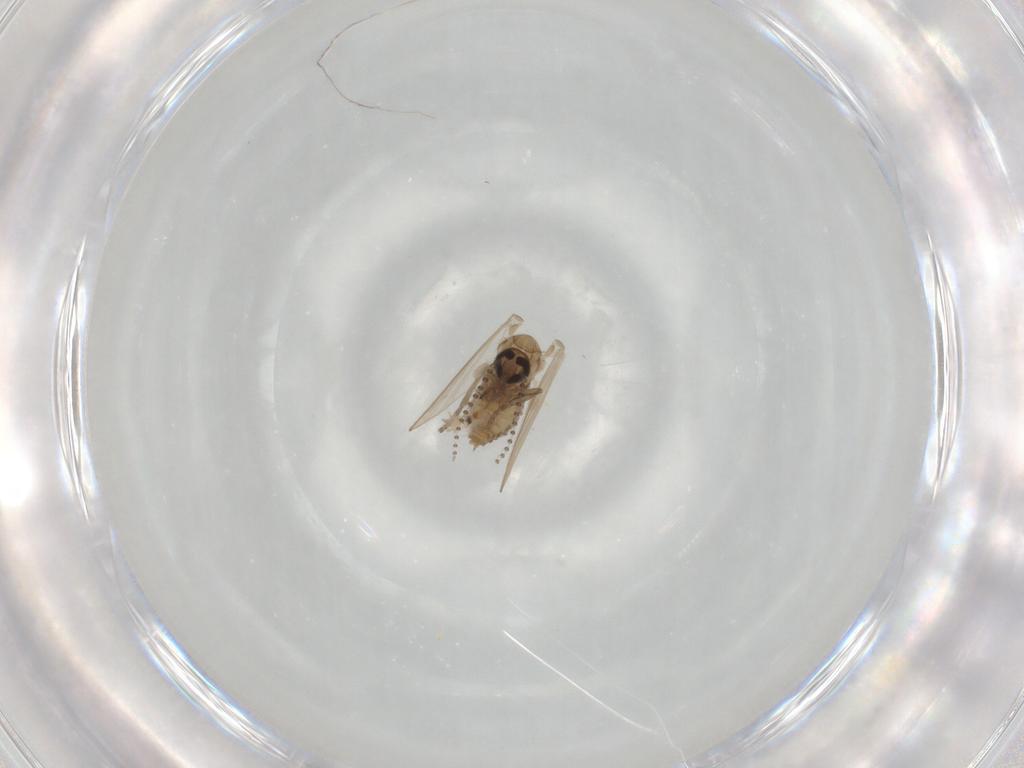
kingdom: Animalia
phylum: Arthropoda
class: Insecta
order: Diptera
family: Psychodidae
